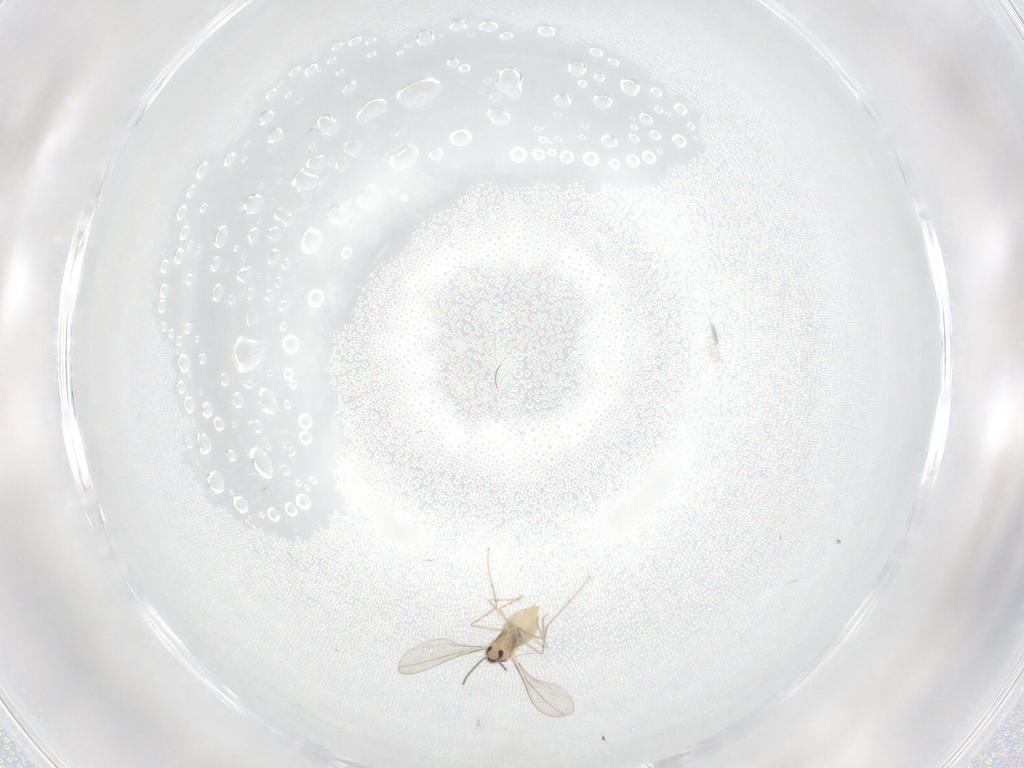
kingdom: Animalia
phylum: Arthropoda
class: Insecta
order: Diptera
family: Cecidomyiidae
